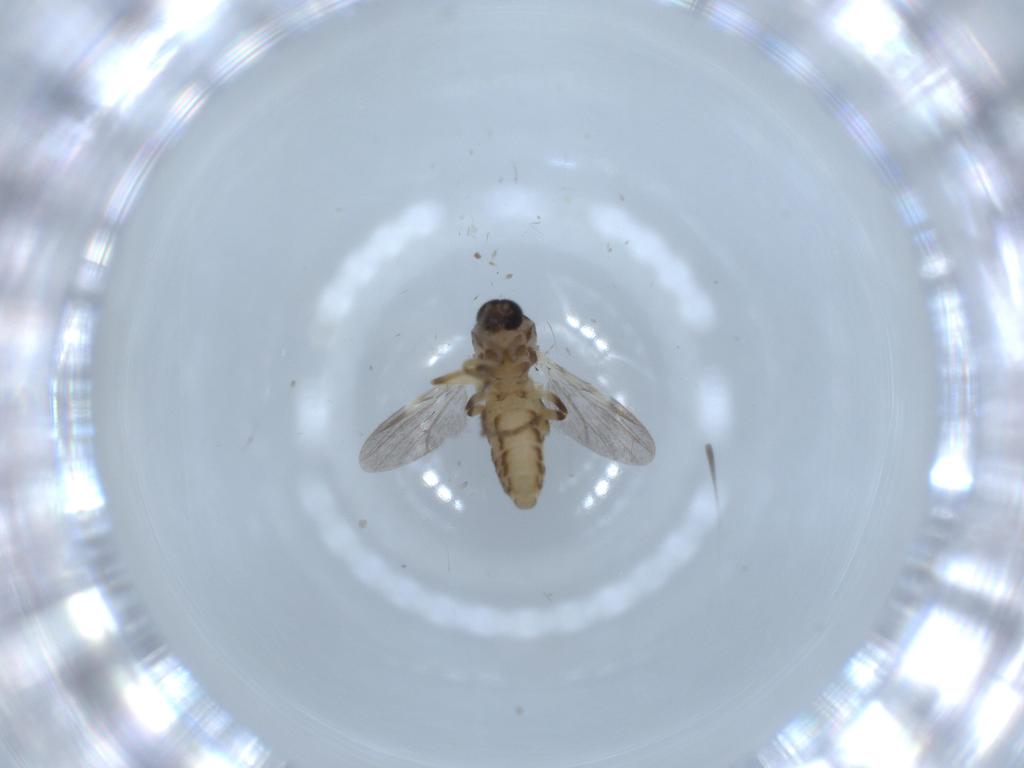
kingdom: Animalia
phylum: Arthropoda
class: Insecta
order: Diptera
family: Ceratopogonidae
